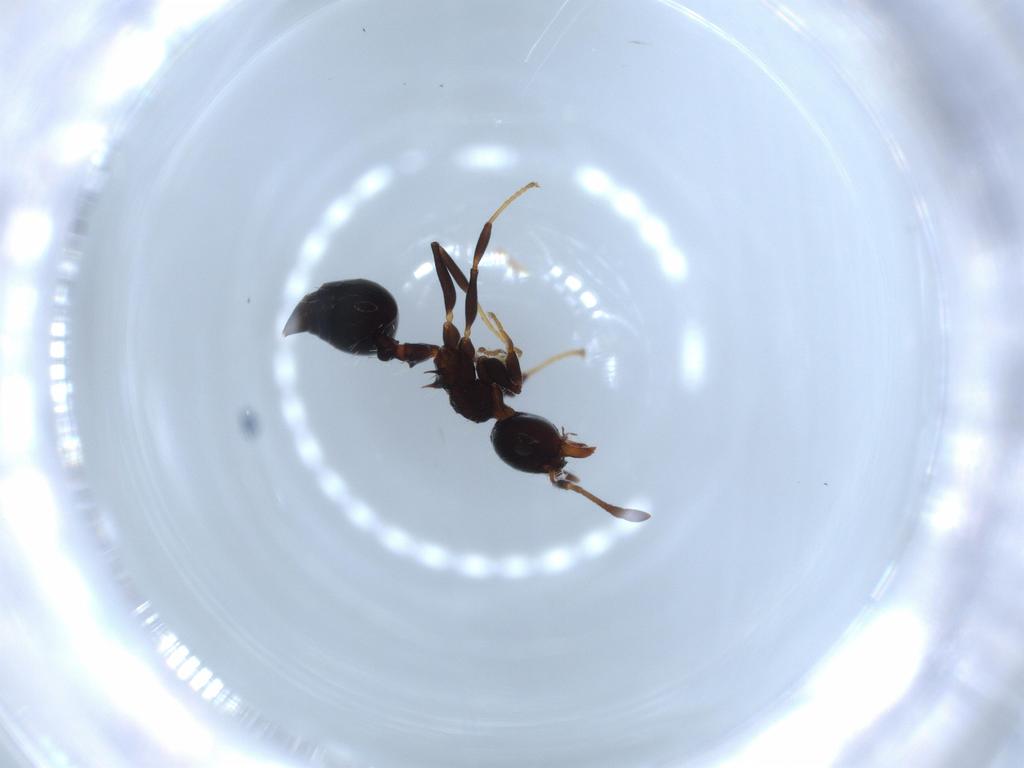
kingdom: Animalia
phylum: Arthropoda
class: Insecta
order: Hymenoptera
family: Formicidae
